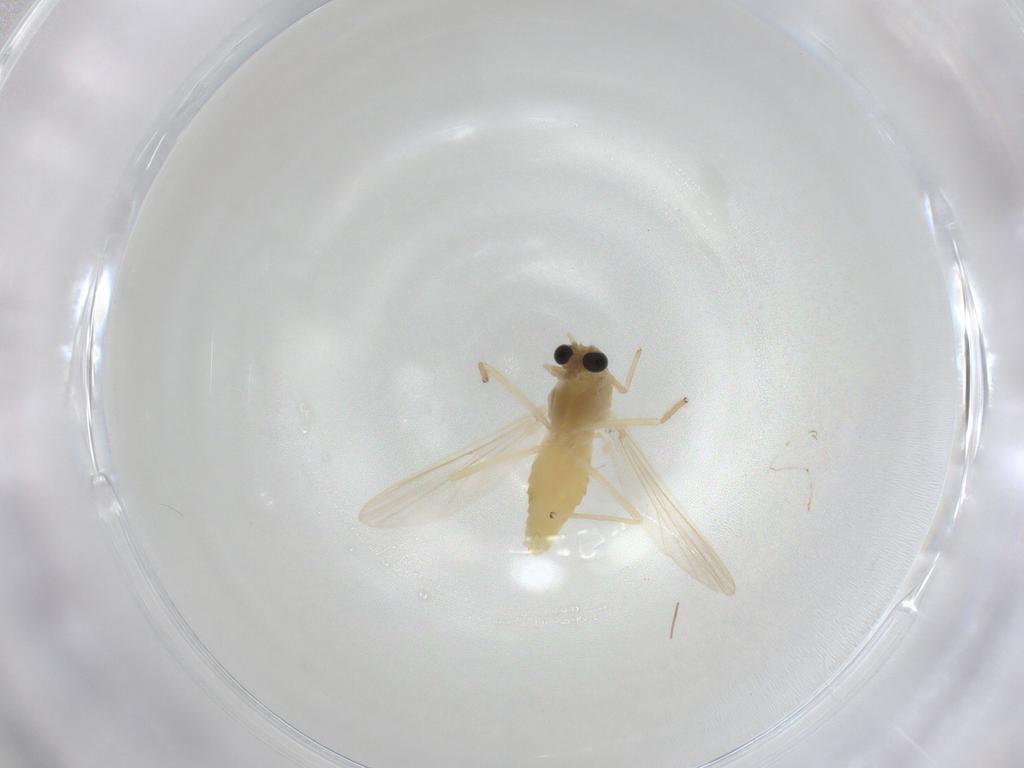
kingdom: Animalia
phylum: Arthropoda
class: Insecta
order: Diptera
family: Chironomidae
